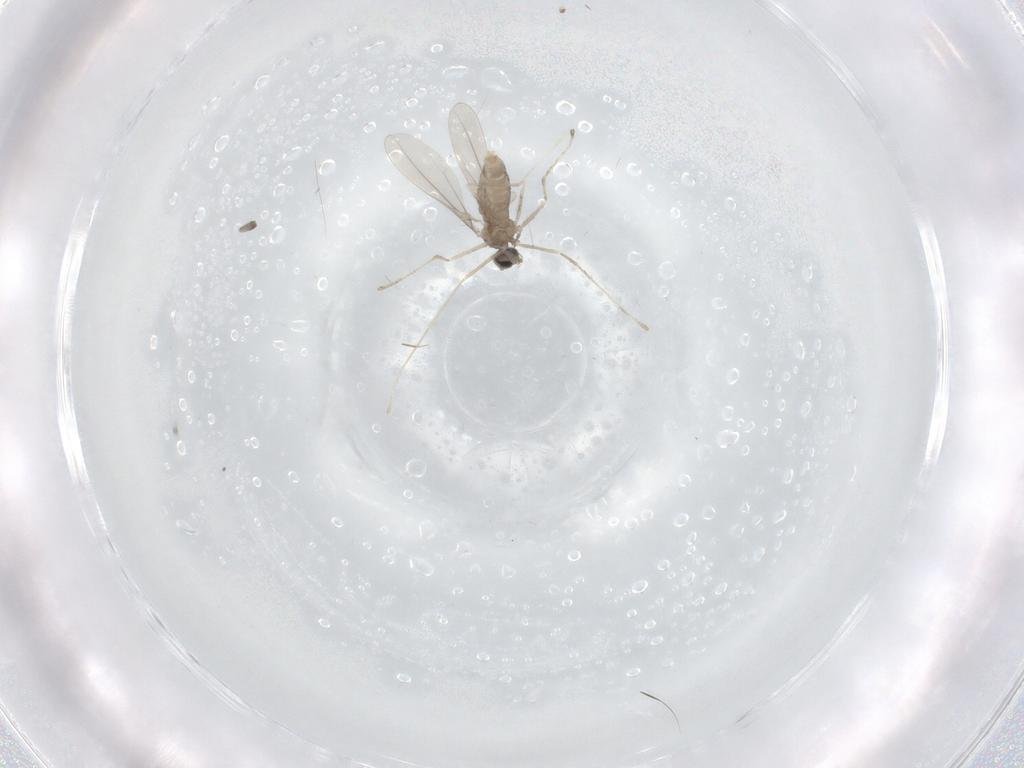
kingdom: Animalia
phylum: Arthropoda
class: Insecta
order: Diptera
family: Cecidomyiidae
